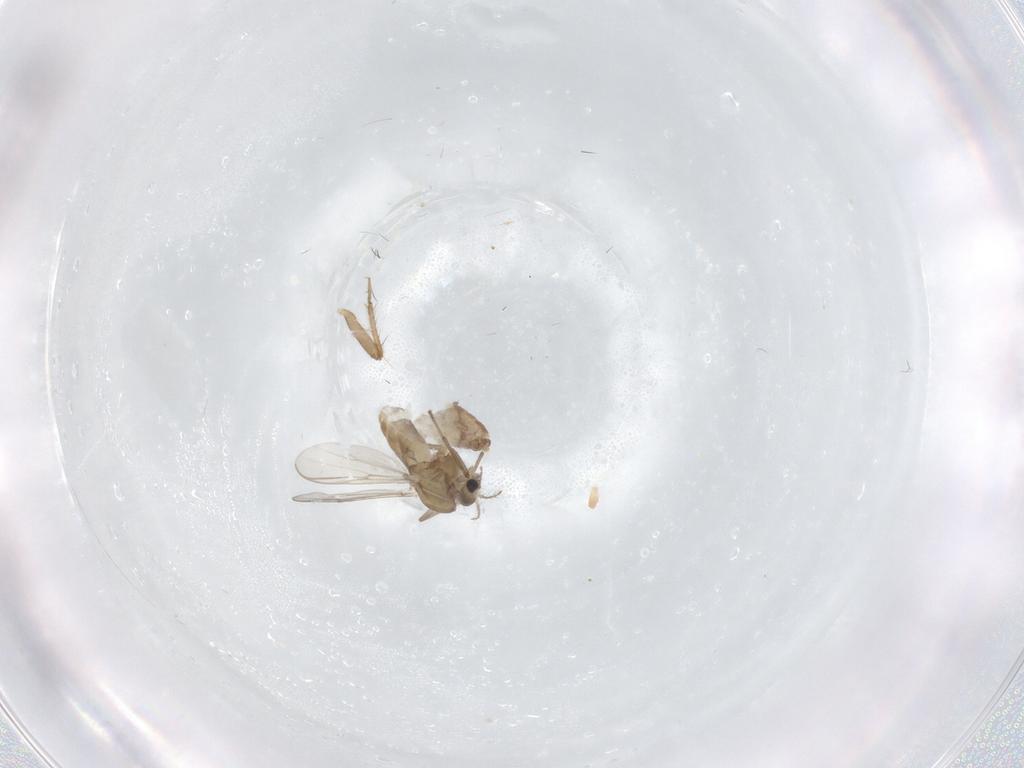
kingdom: Animalia
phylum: Arthropoda
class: Insecta
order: Diptera
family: Chironomidae
